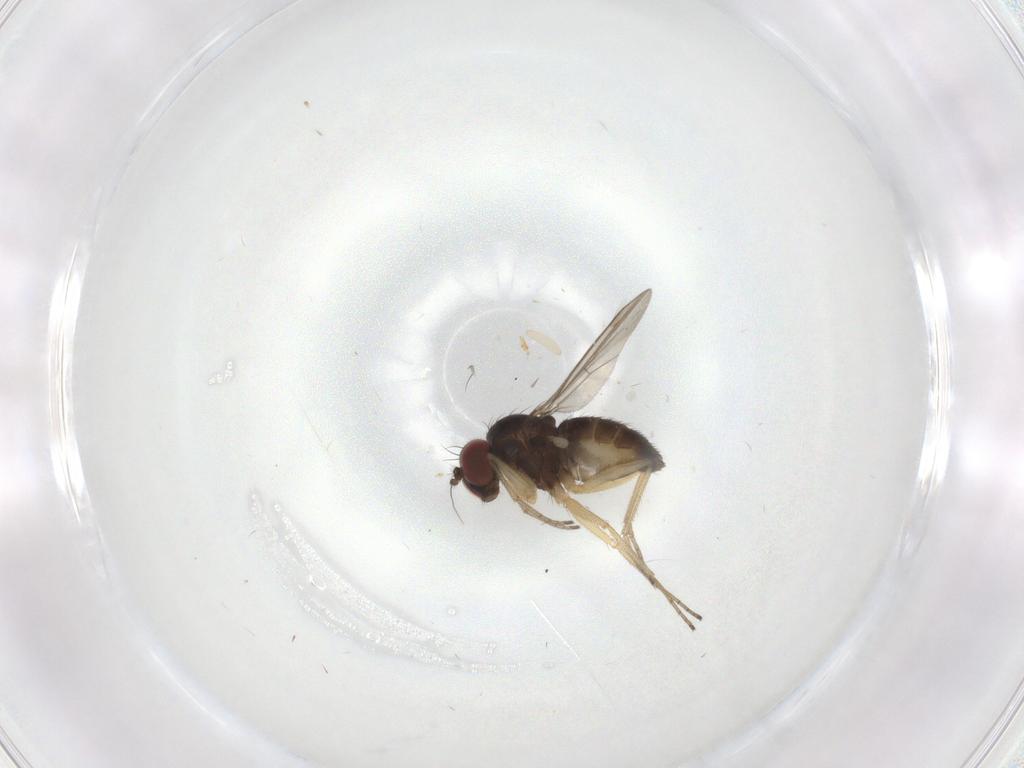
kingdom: Animalia
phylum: Arthropoda
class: Insecta
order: Diptera
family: Dolichopodidae
